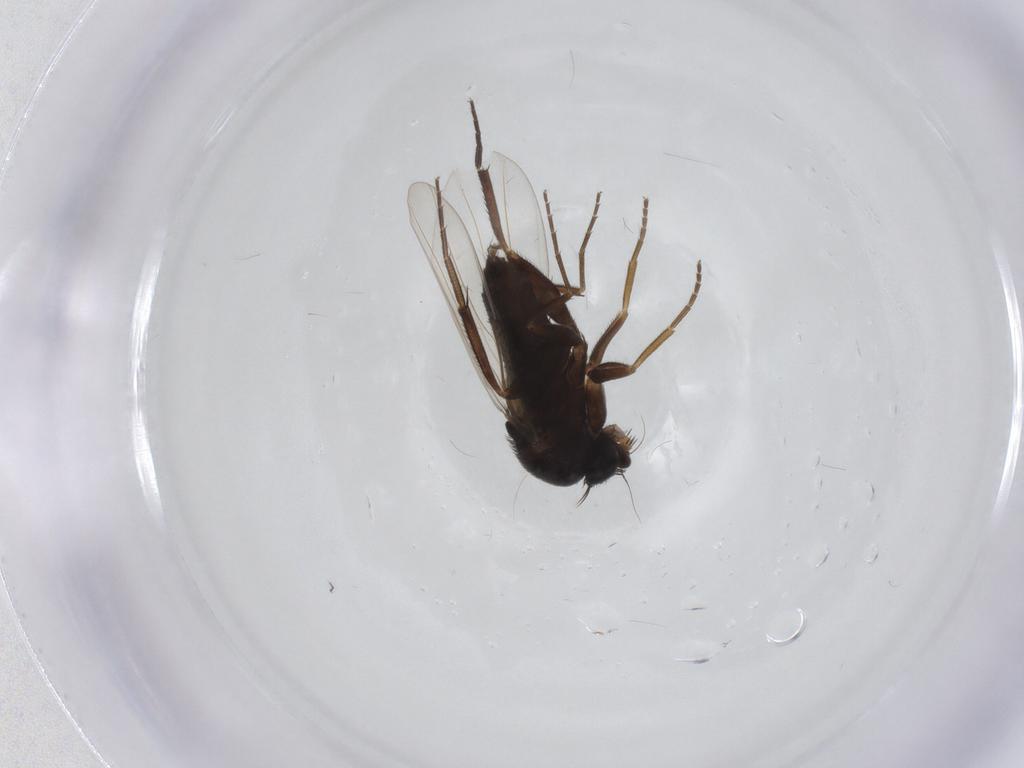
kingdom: Animalia
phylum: Arthropoda
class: Insecta
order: Diptera
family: Phoridae
